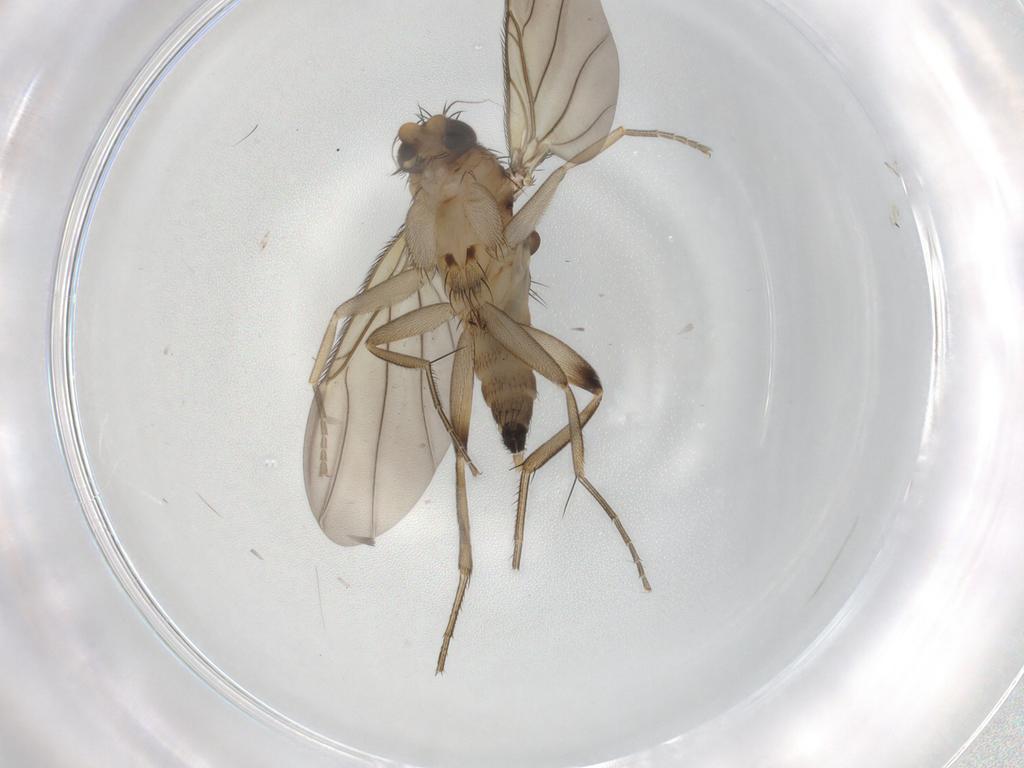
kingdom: Animalia
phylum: Arthropoda
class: Insecta
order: Diptera
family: Phoridae
